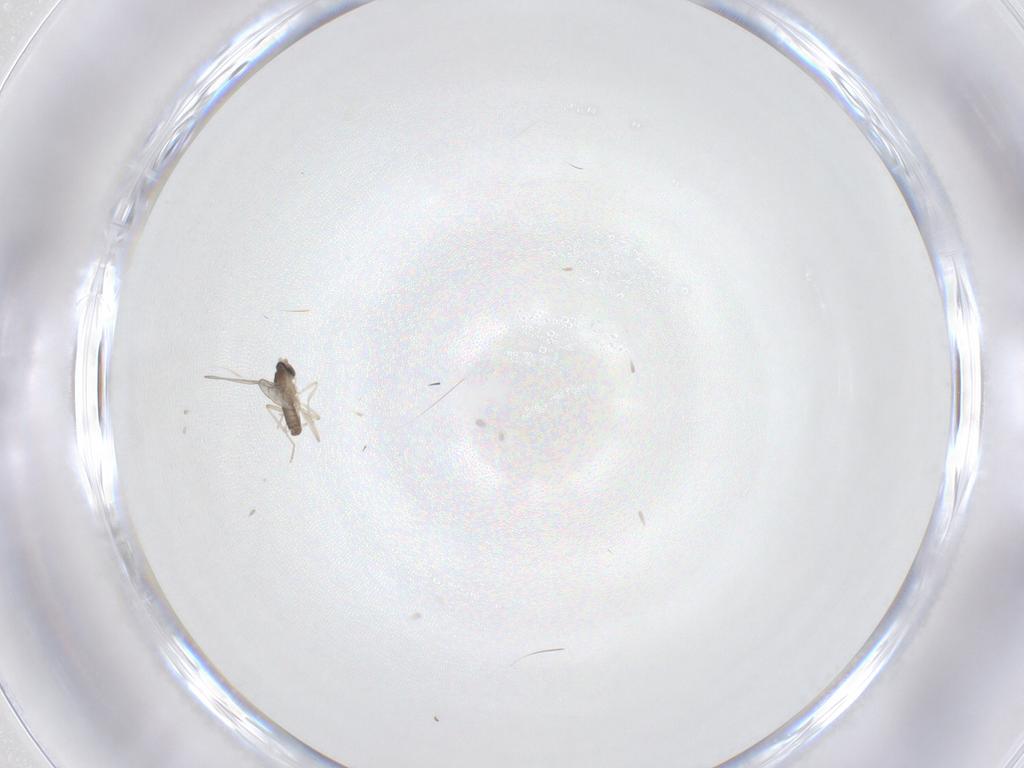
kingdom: Animalia
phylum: Arthropoda
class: Insecta
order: Diptera
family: Cecidomyiidae
